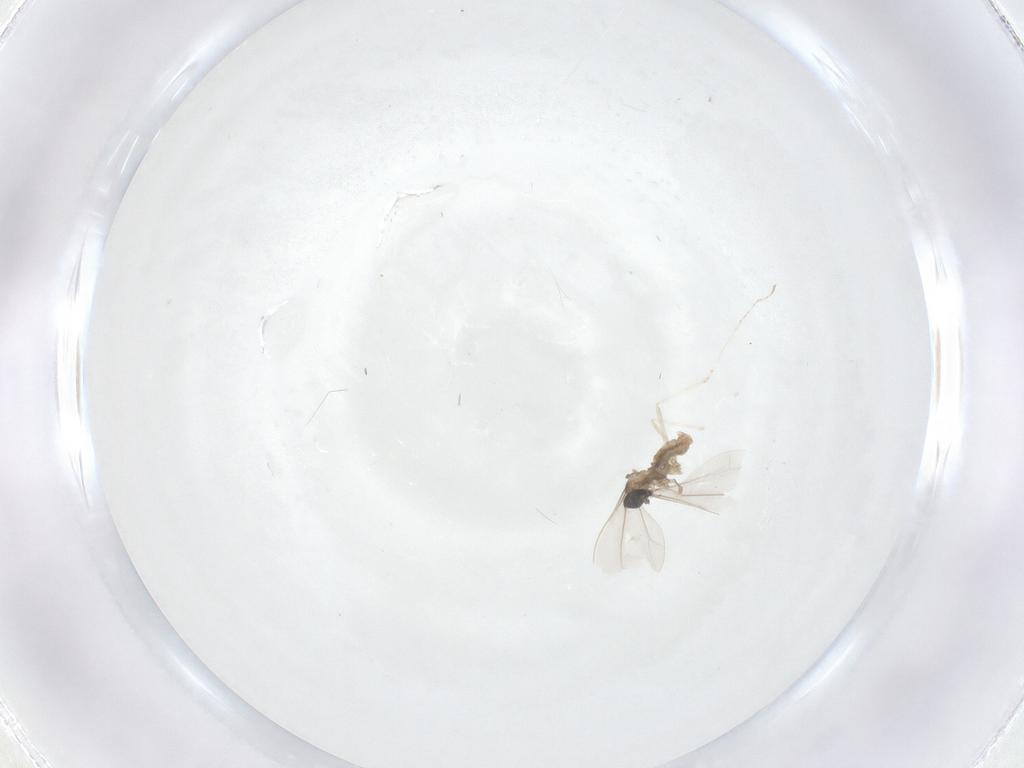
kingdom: Animalia
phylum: Arthropoda
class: Insecta
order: Diptera
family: Cecidomyiidae
